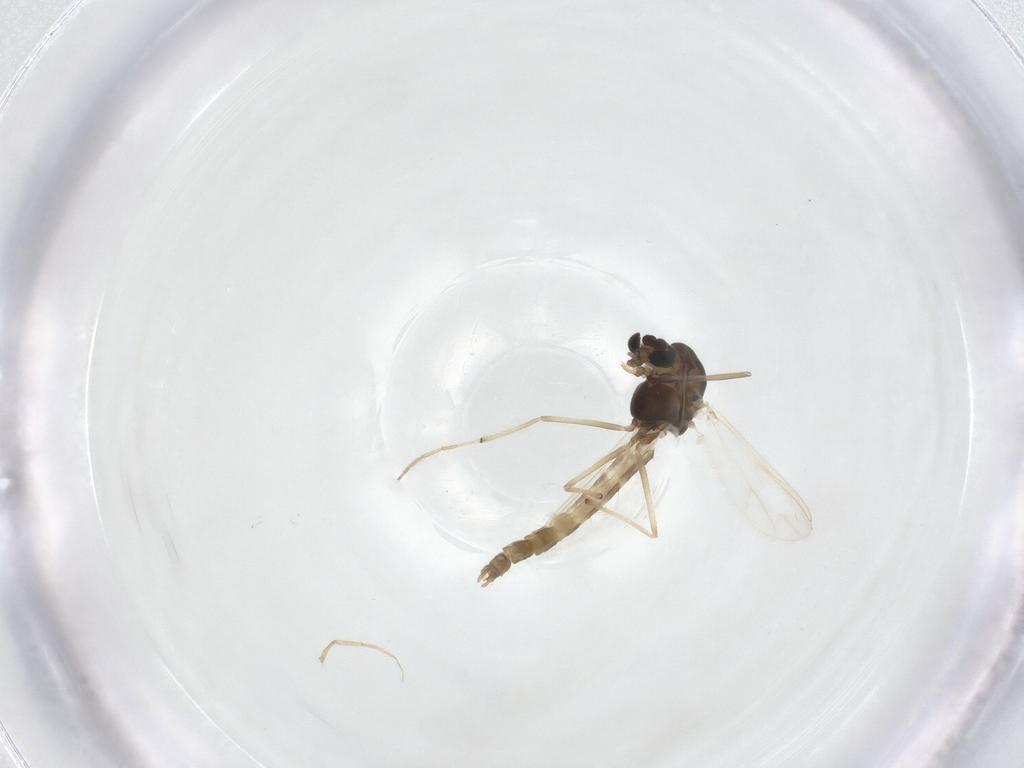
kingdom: Animalia
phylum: Arthropoda
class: Insecta
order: Diptera
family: Chironomidae
